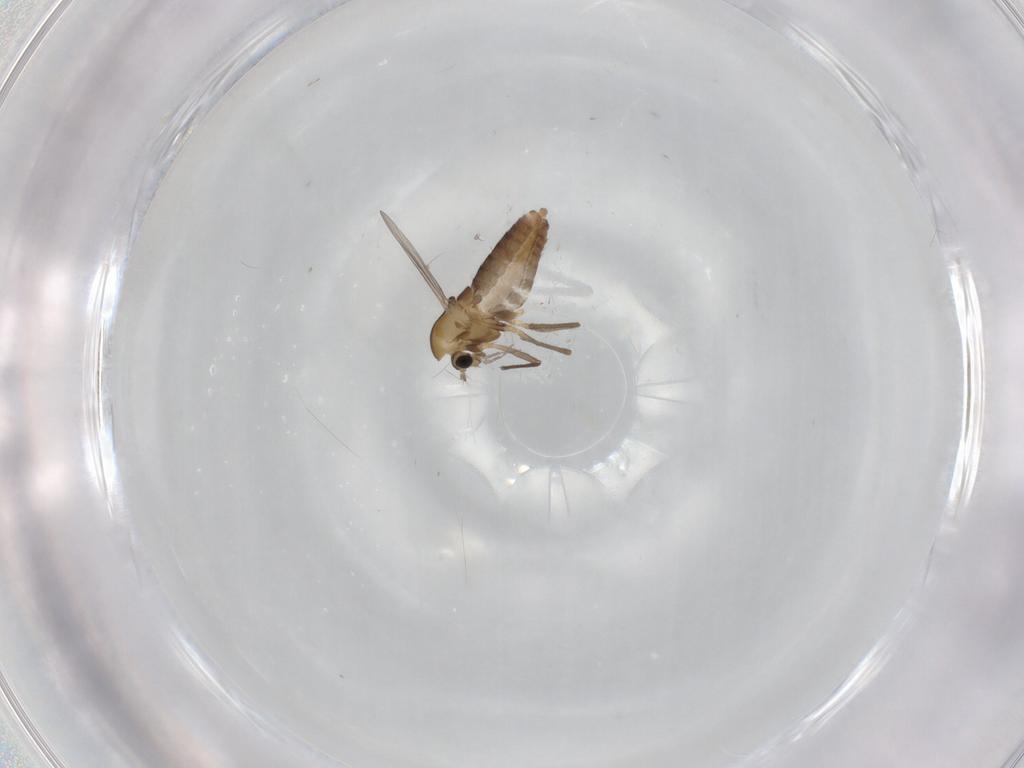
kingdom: Animalia
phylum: Arthropoda
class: Insecta
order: Diptera
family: Chironomidae
